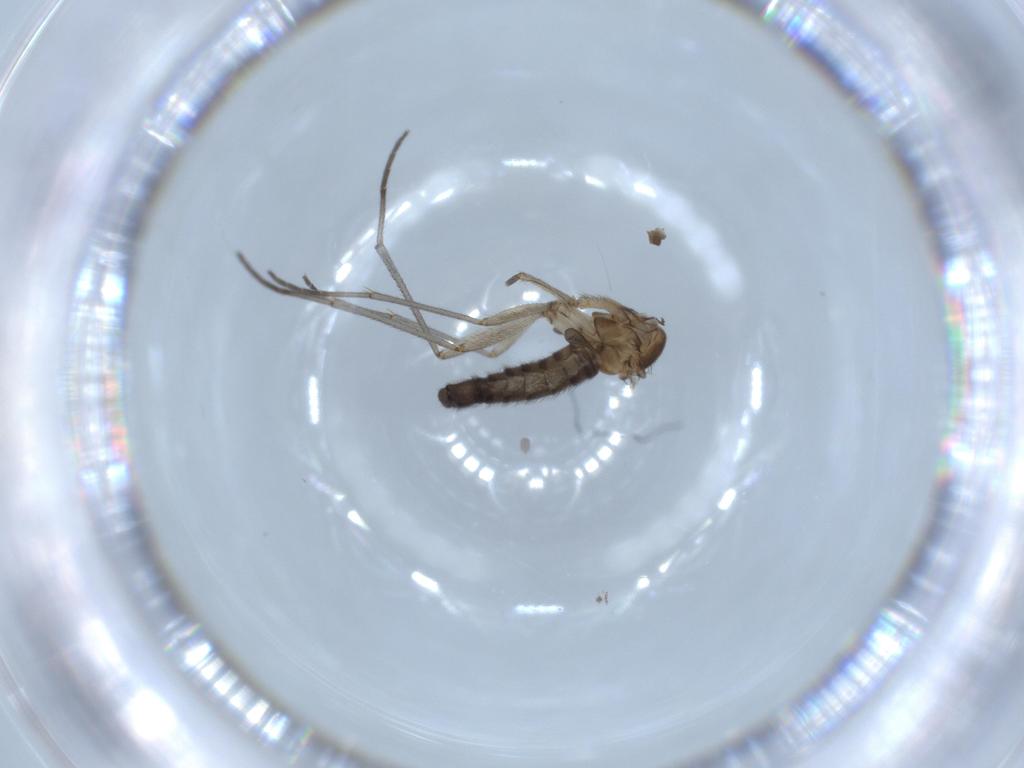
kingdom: Animalia
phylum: Arthropoda
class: Insecta
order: Diptera
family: Sciaridae
